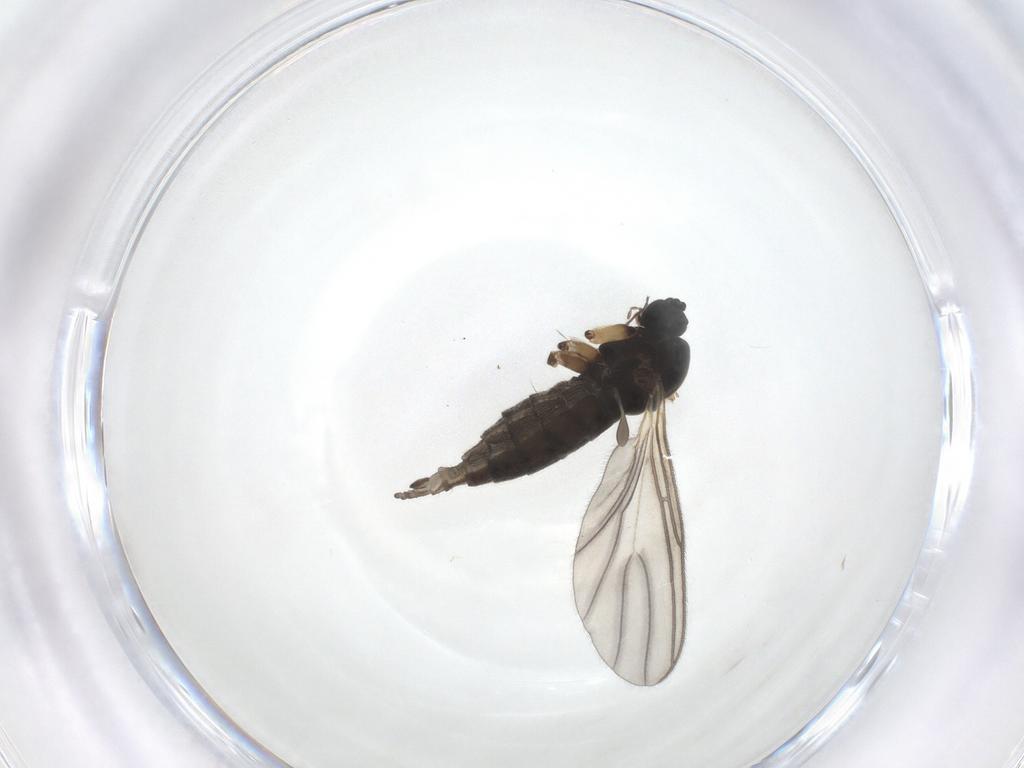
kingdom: Animalia
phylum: Arthropoda
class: Insecta
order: Diptera
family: Sciaridae
